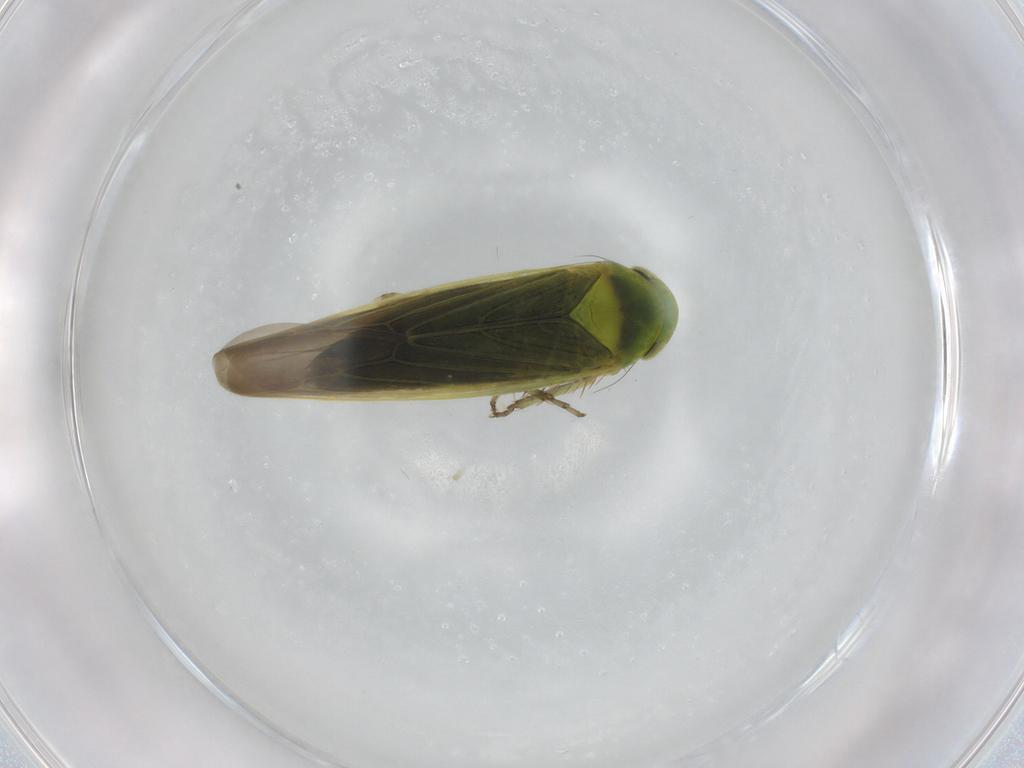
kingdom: Animalia
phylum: Arthropoda
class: Insecta
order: Hemiptera
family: Cicadellidae
